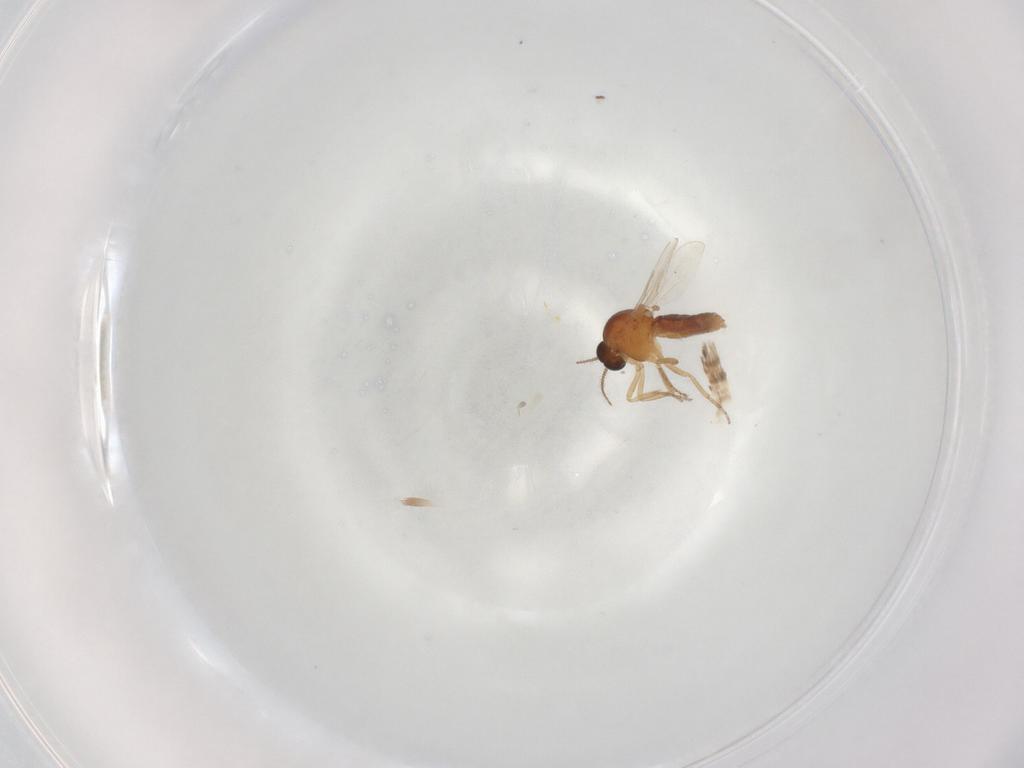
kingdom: Animalia
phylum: Arthropoda
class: Insecta
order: Diptera
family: Ceratopogonidae
